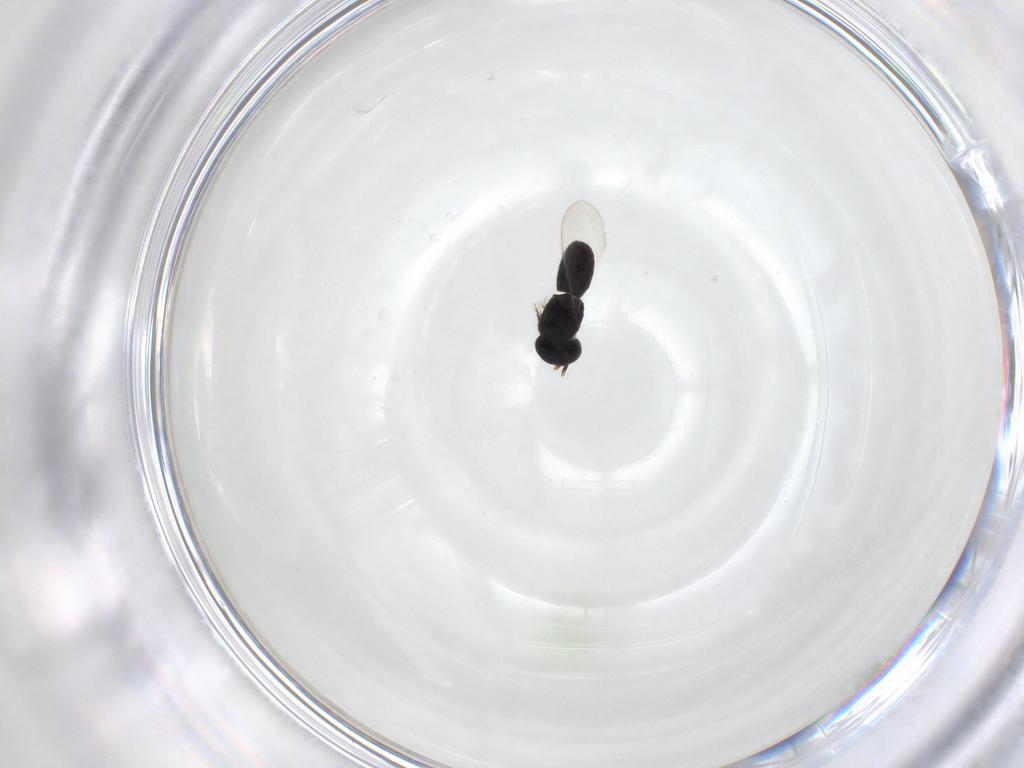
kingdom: Animalia
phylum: Arthropoda
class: Insecta
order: Hymenoptera
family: Scelionidae
